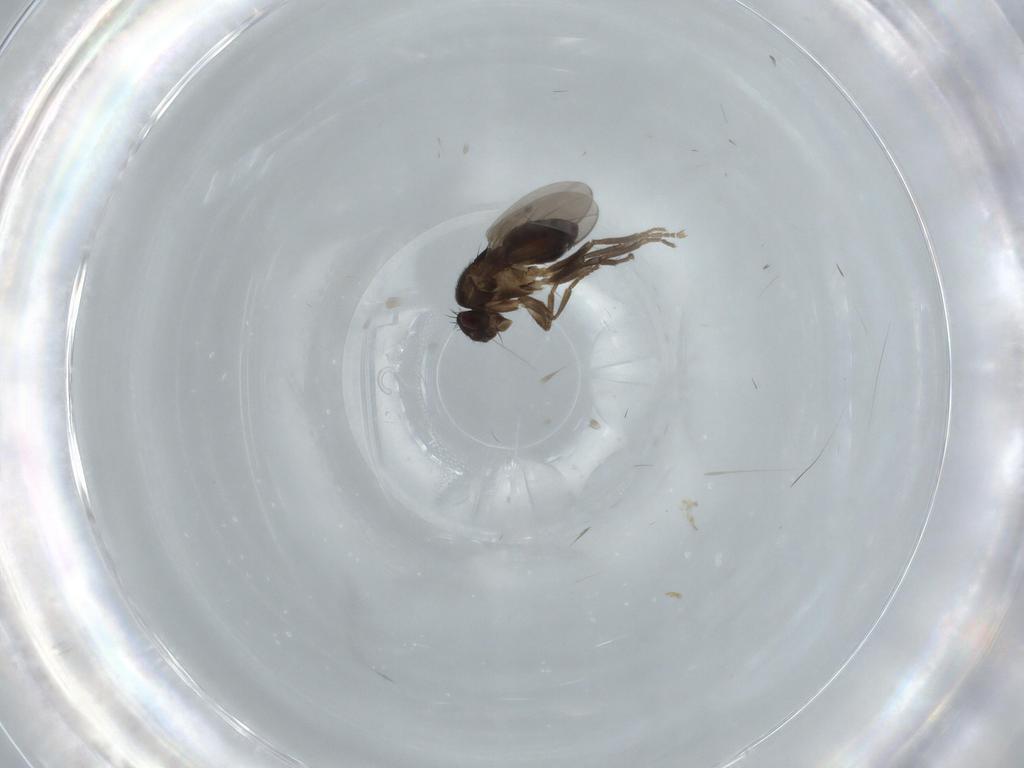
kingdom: Animalia
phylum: Arthropoda
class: Insecta
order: Diptera
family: Sphaeroceridae
